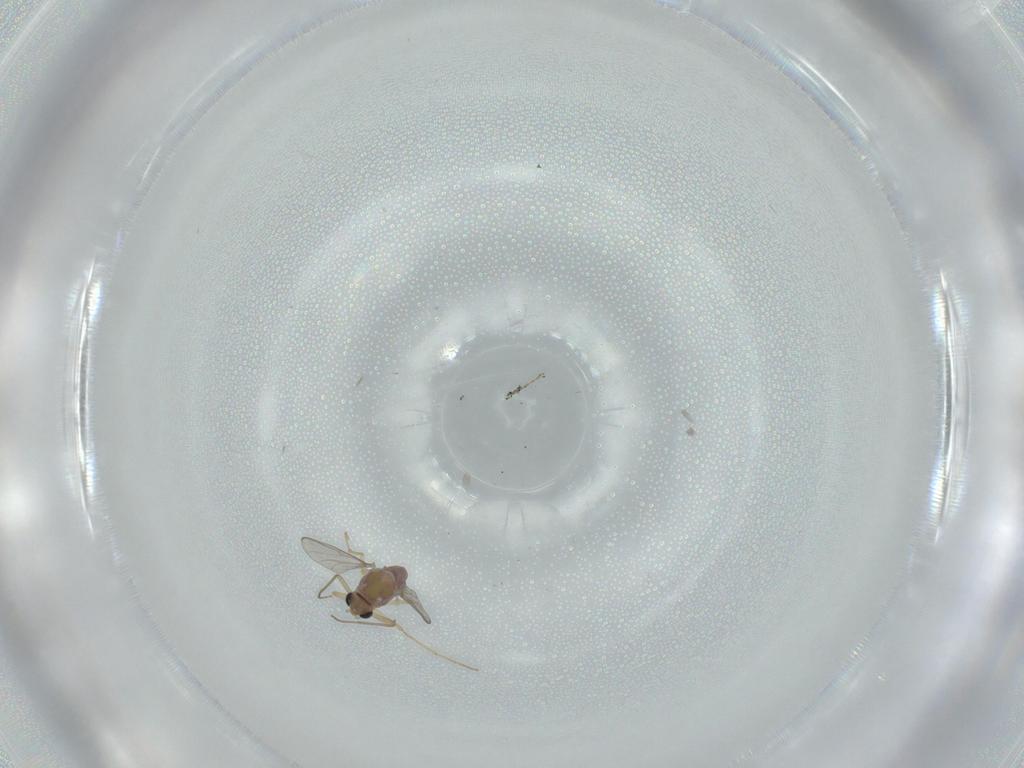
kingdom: Animalia
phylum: Arthropoda
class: Insecta
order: Diptera
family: Chironomidae
